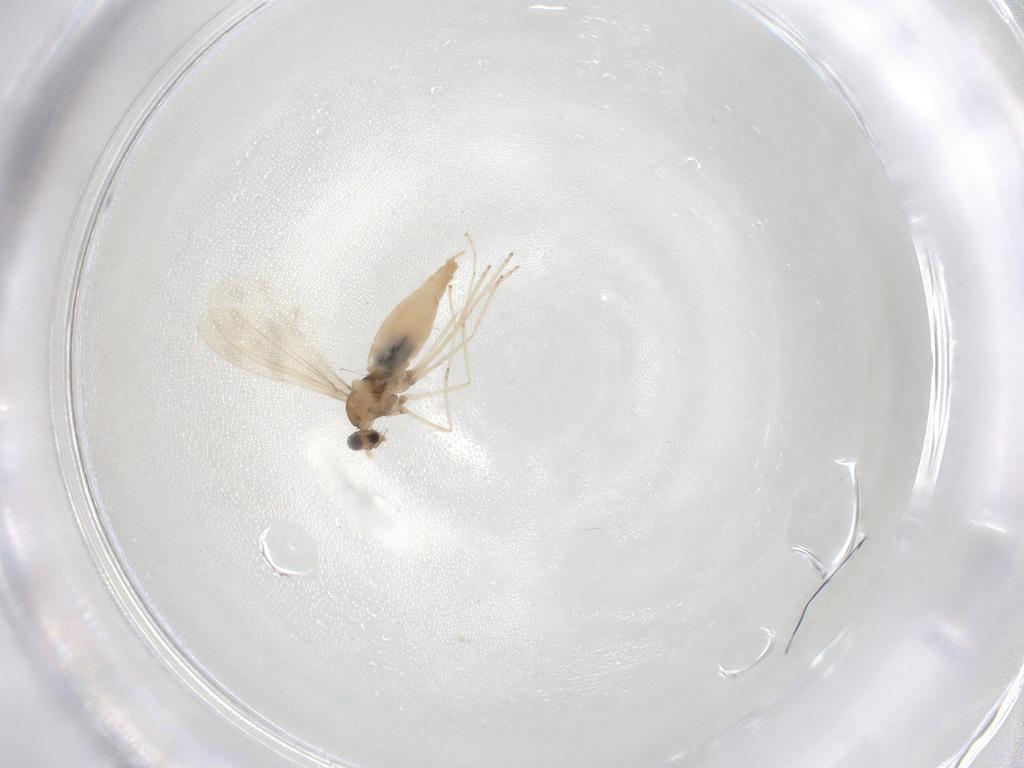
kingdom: Animalia
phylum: Arthropoda
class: Insecta
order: Diptera
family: Cecidomyiidae
